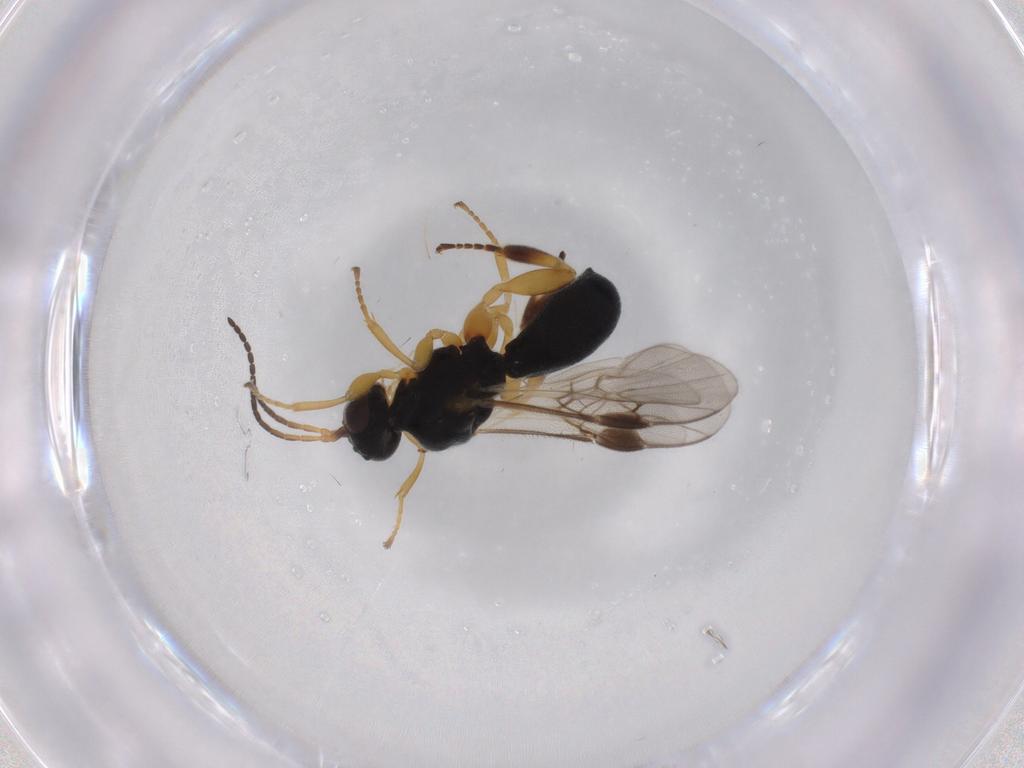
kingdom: Animalia
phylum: Arthropoda
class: Insecta
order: Hymenoptera
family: Braconidae
